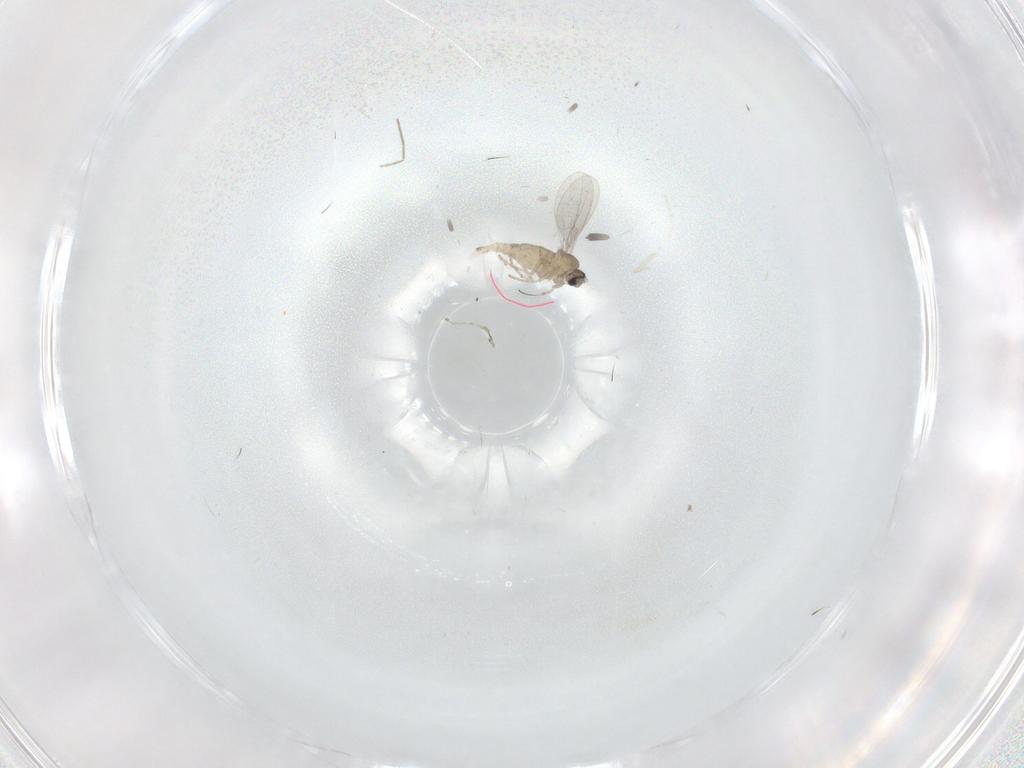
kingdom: Animalia
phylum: Arthropoda
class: Insecta
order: Diptera
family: Chironomidae
